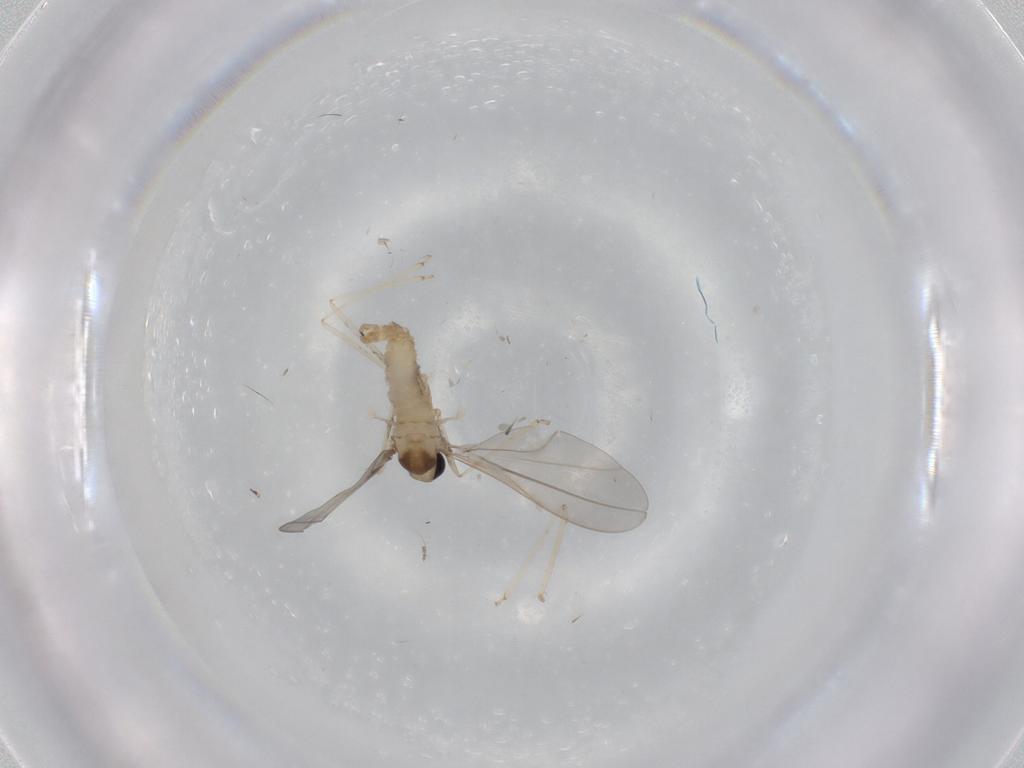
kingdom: Animalia
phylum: Arthropoda
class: Insecta
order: Diptera
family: Cecidomyiidae
